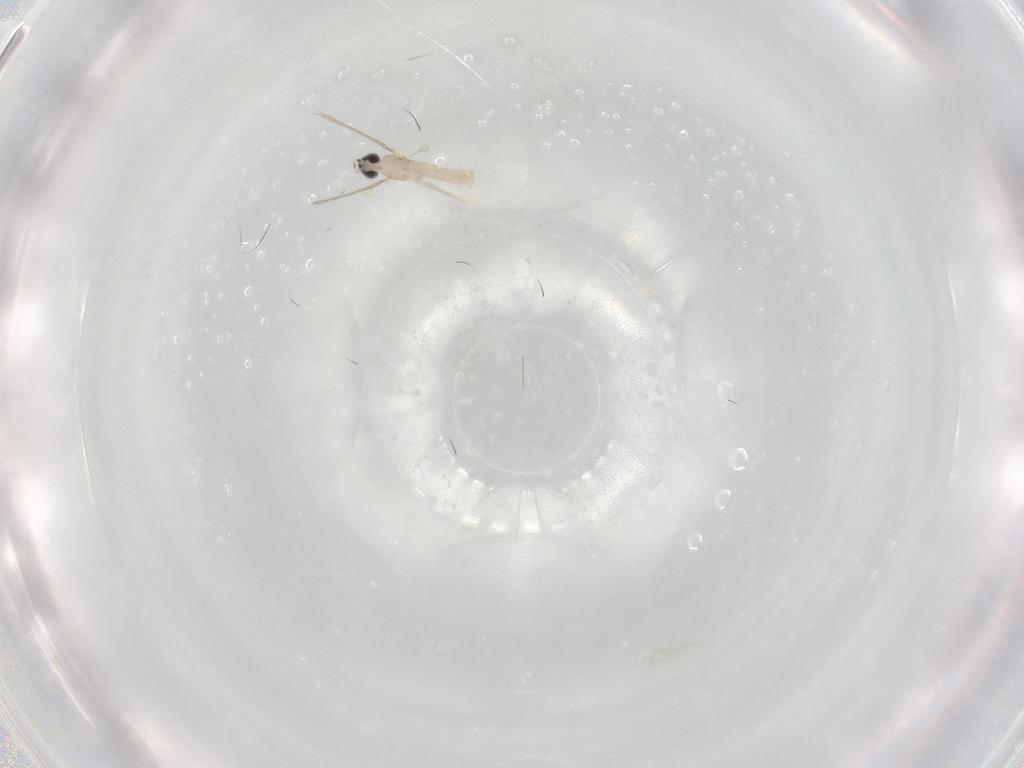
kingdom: Animalia
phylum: Arthropoda
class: Insecta
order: Diptera
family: Cecidomyiidae
